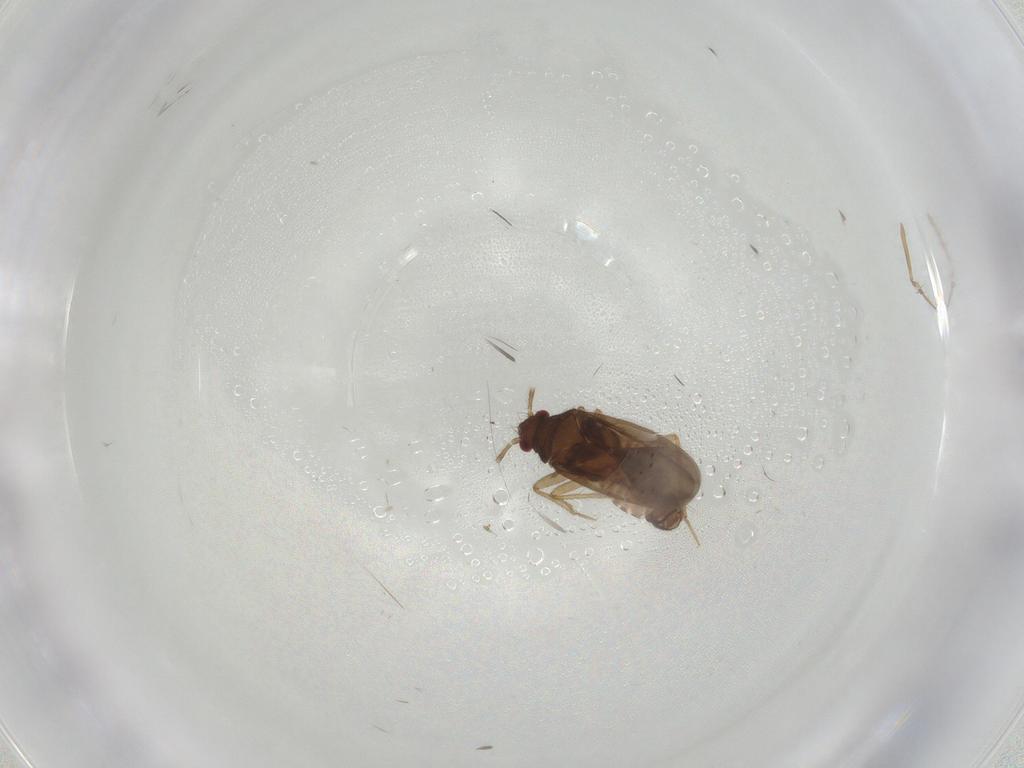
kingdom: Animalia
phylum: Arthropoda
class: Insecta
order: Hemiptera
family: Ceratocombidae
